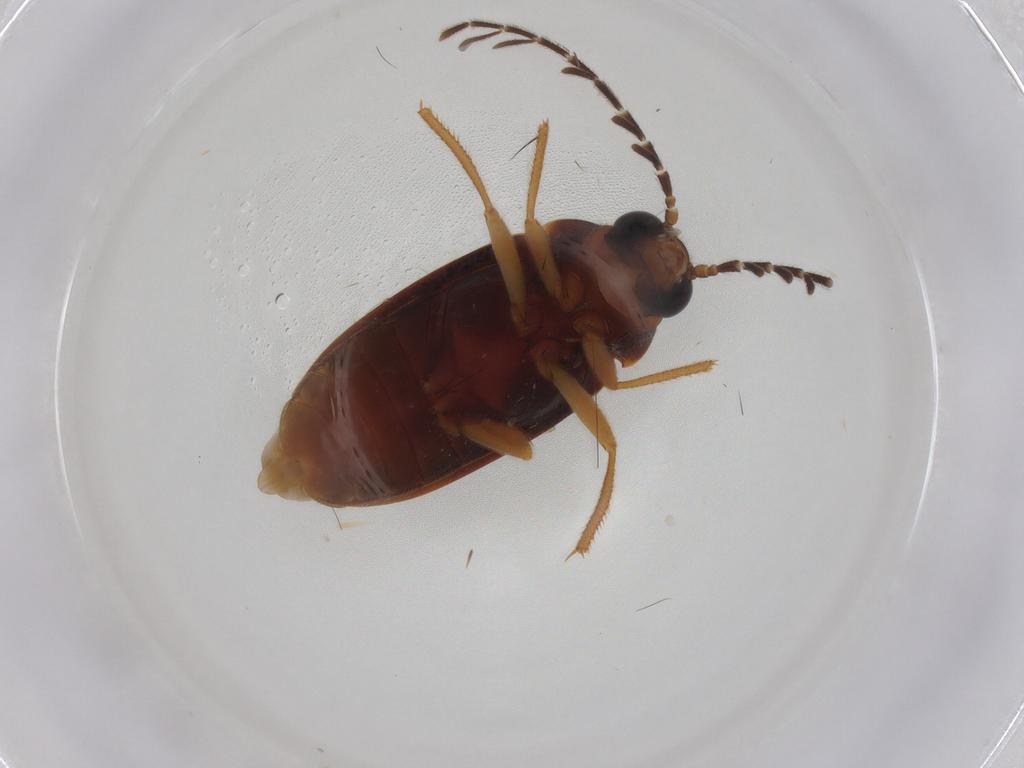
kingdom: Animalia
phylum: Arthropoda
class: Insecta
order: Coleoptera
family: Ptilodactylidae
